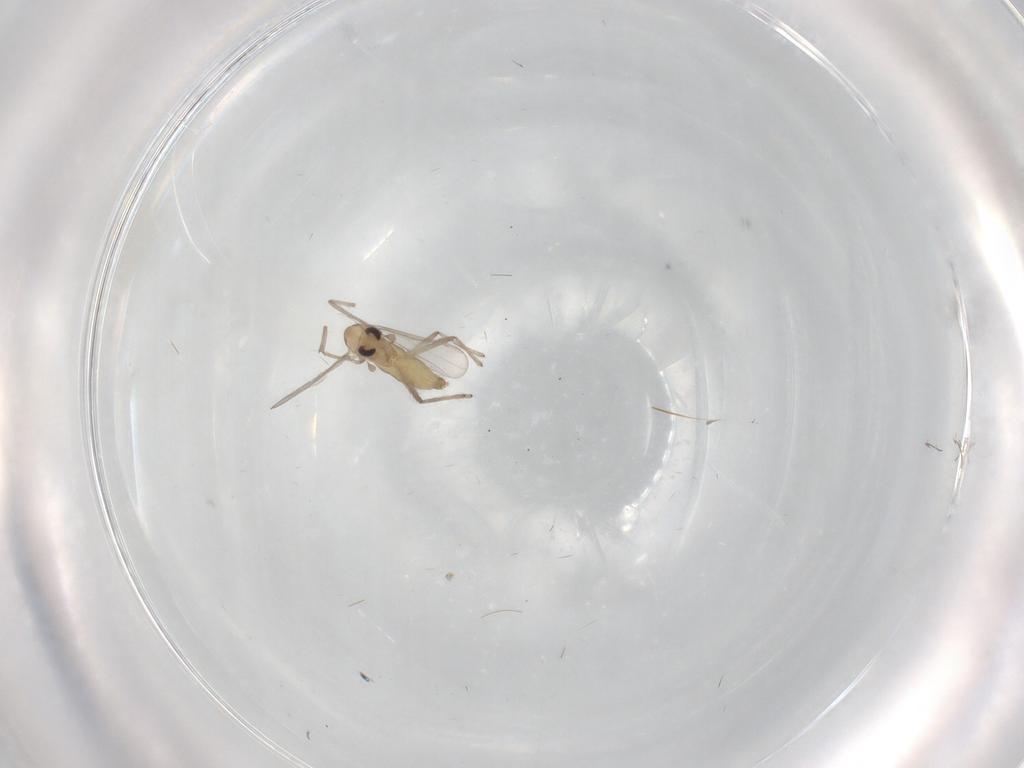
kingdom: Animalia
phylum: Arthropoda
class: Insecta
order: Diptera
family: Chironomidae
